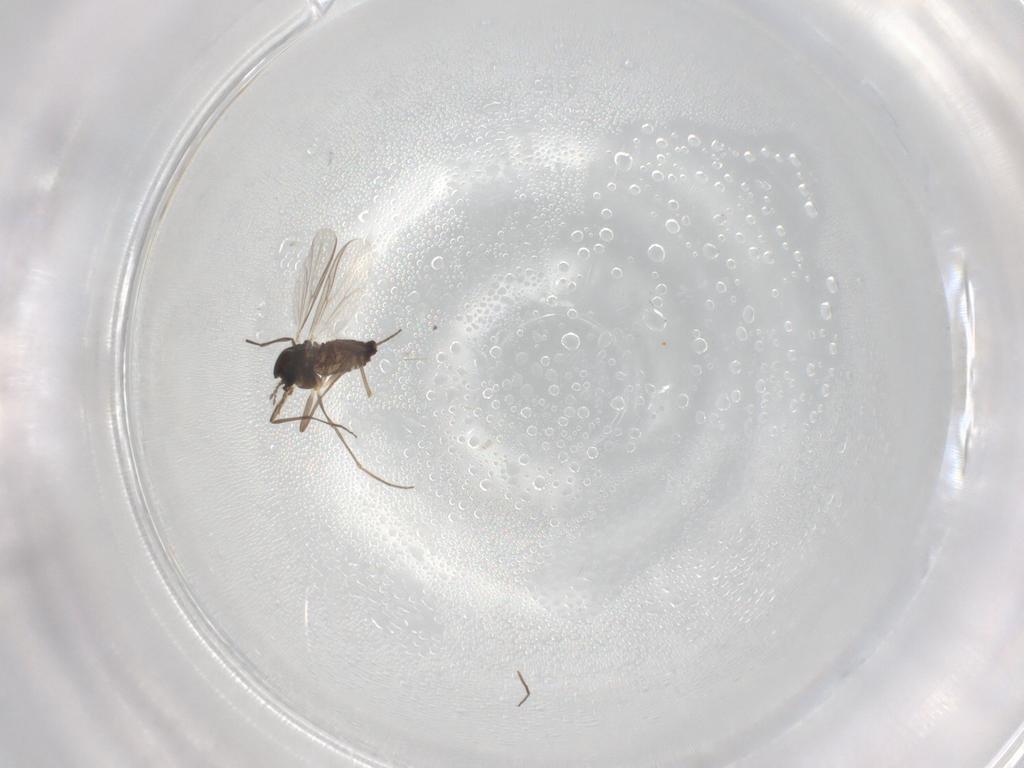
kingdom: Animalia
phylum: Arthropoda
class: Insecta
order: Diptera
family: Chironomidae
